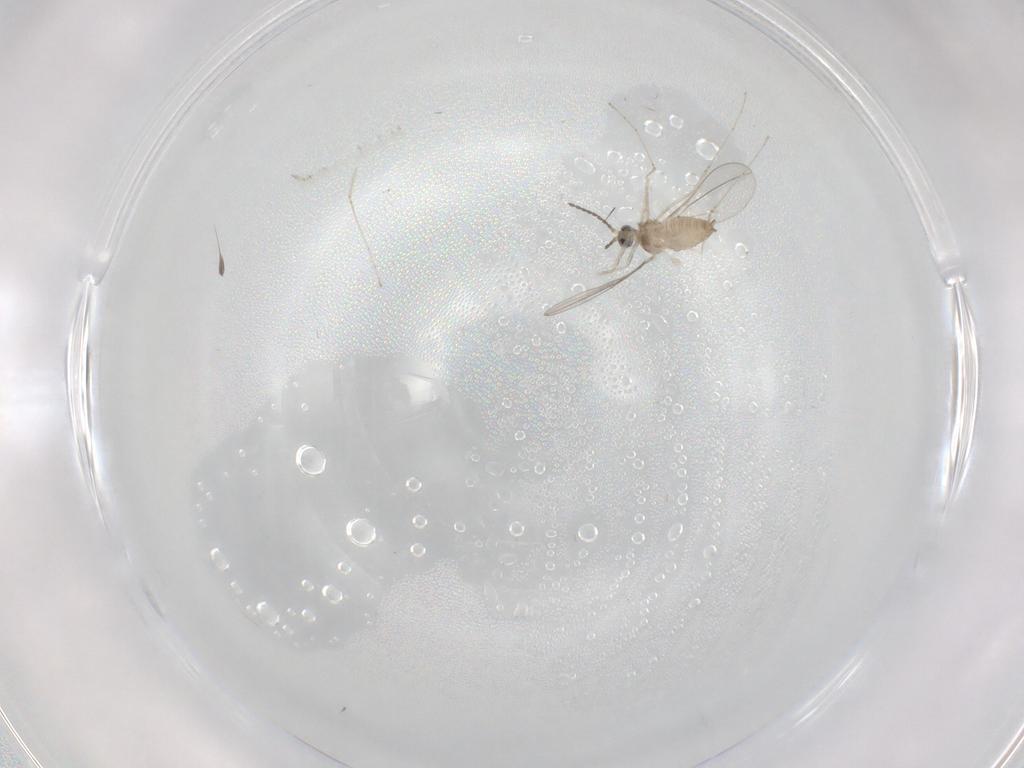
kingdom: Animalia
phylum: Arthropoda
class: Insecta
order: Diptera
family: Cecidomyiidae
